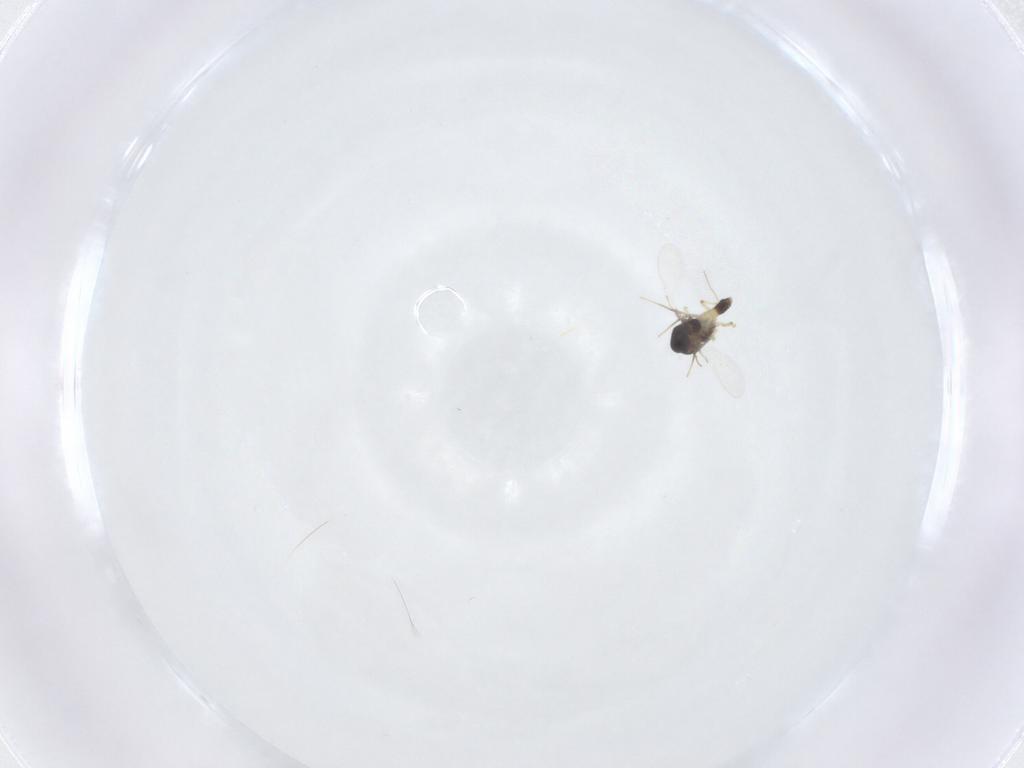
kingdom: Animalia
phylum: Arthropoda
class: Insecta
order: Diptera
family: Chironomidae
